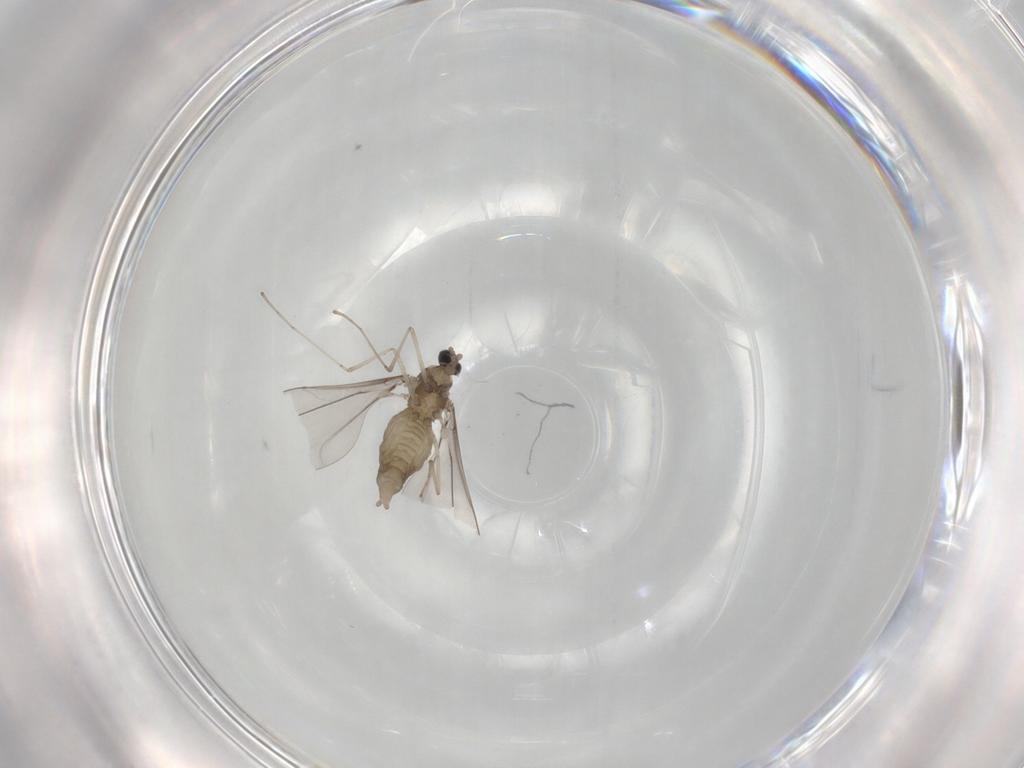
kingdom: Animalia
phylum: Arthropoda
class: Insecta
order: Diptera
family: Cecidomyiidae
